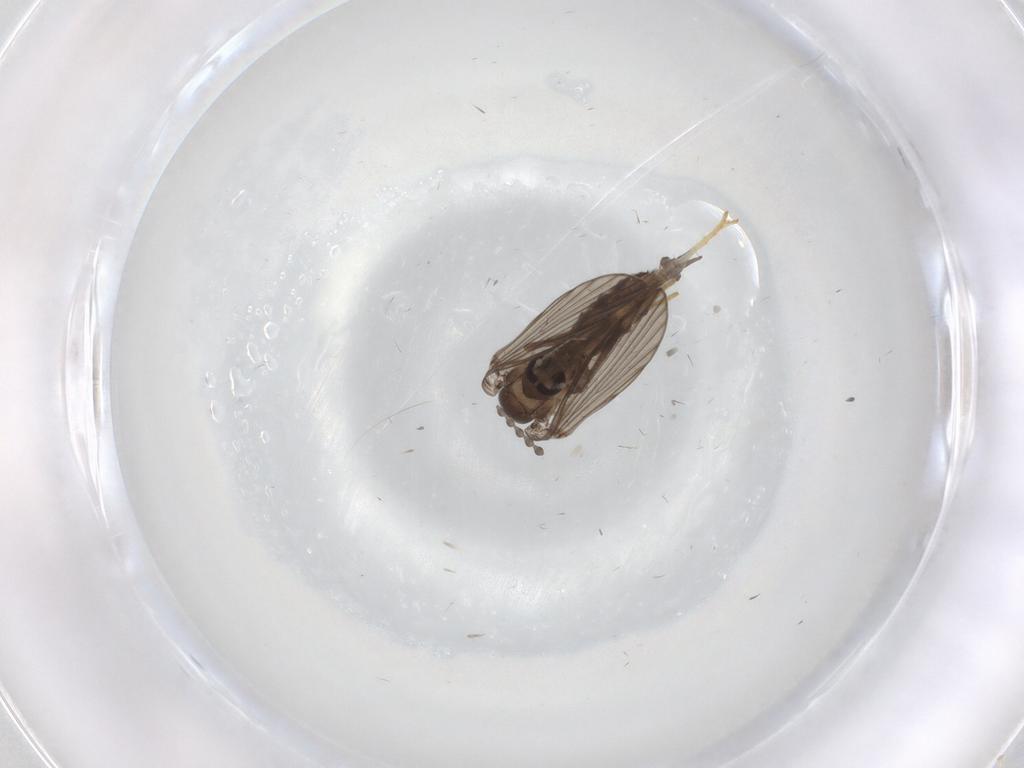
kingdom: Animalia
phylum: Arthropoda
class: Insecta
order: Diptera
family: Psychodidae
